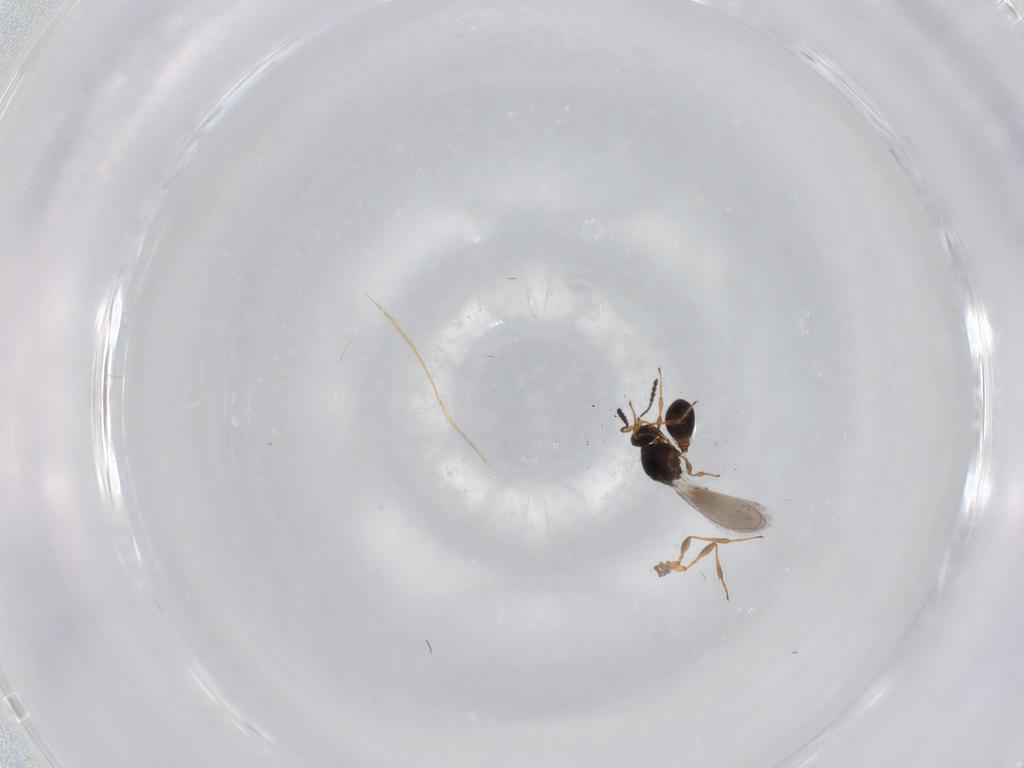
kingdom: Animalia
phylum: Arthropoda
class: Insecta
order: Hymenoptera
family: Platygastridae
